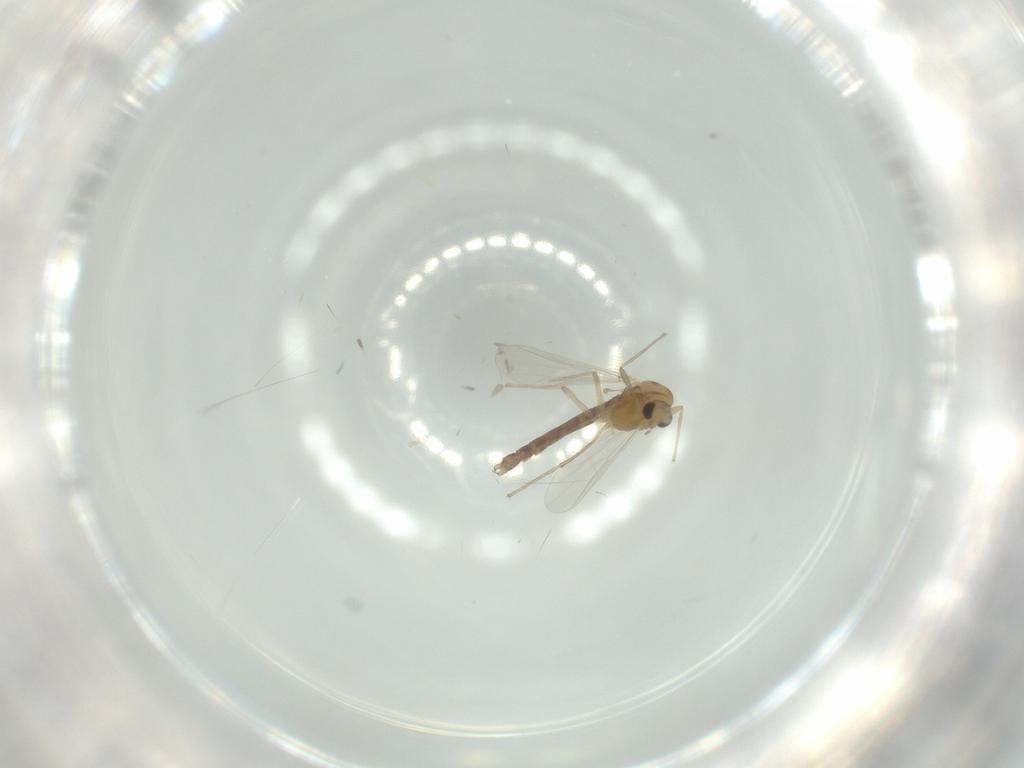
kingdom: Animalia
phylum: Arthropoda
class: Insecta
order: Diptera
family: Chironomidae
